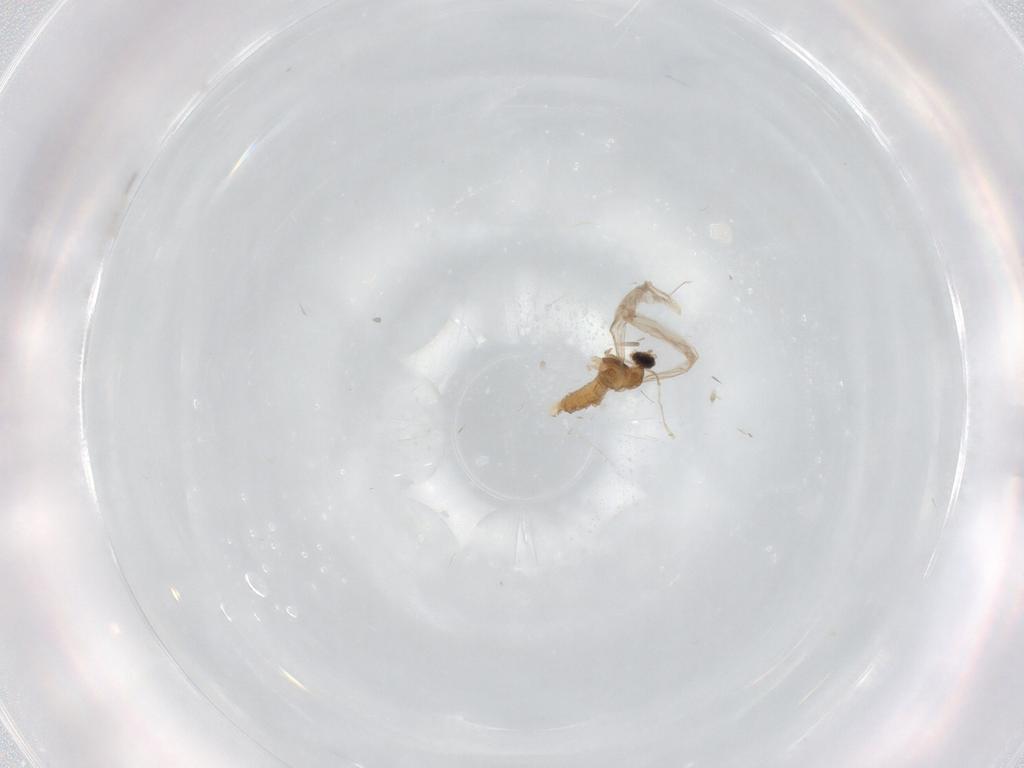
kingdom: Animalia
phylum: Arthropoda
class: Insecta
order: Diptera
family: Cecidomyiidae
